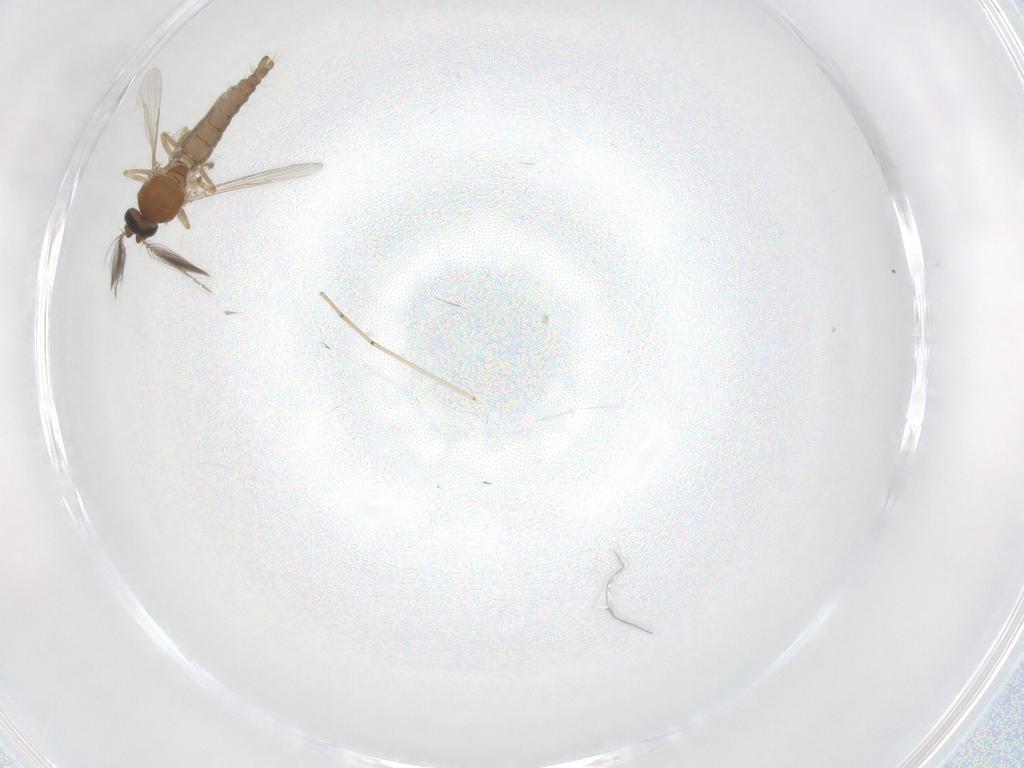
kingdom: Animalia
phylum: Arthropoda
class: Insecta
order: Diptera
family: Ceratopogonidae
